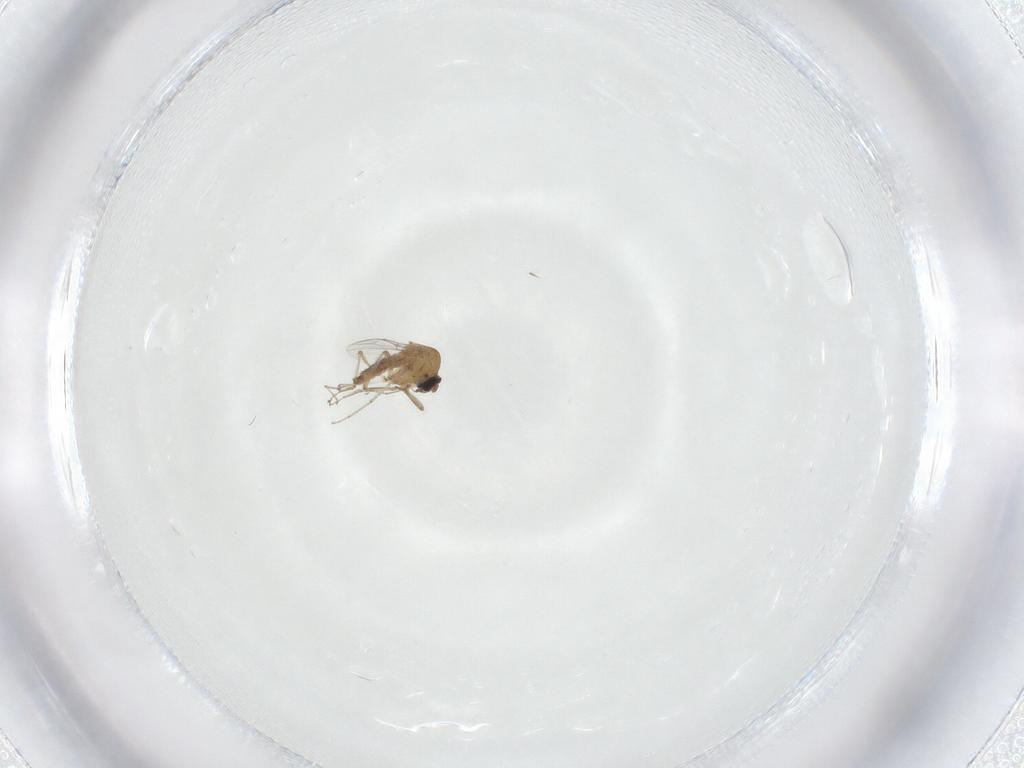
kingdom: Animalia
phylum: Arthropoda
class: Insecta
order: Diptera
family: Ceratopogonidae
